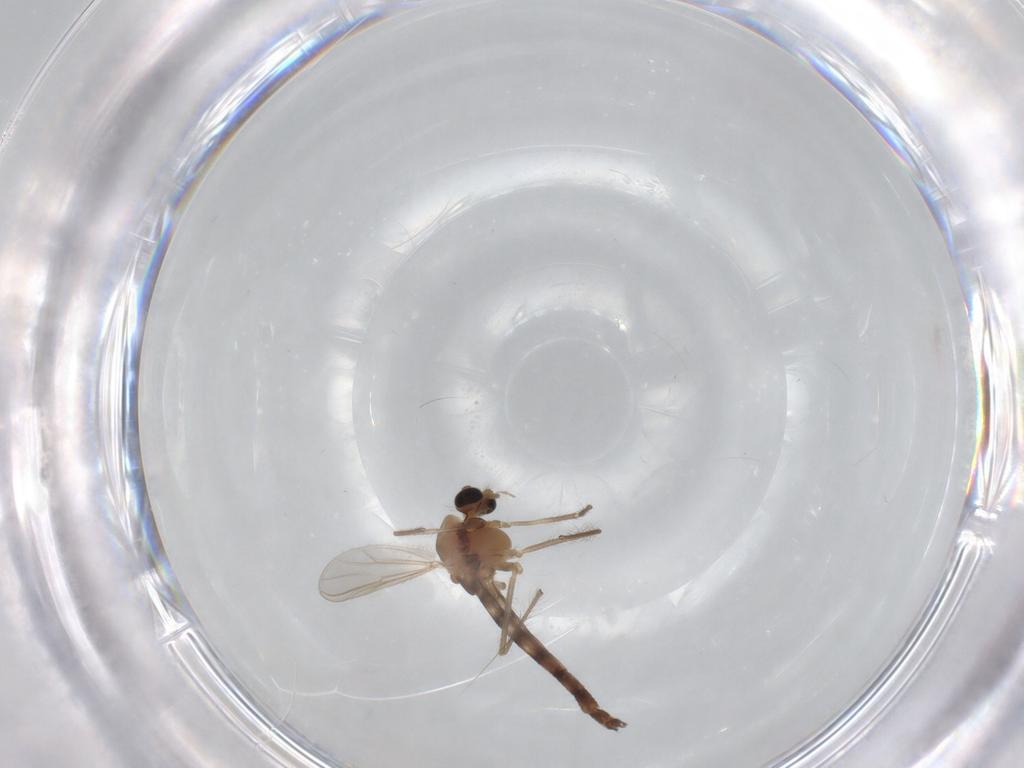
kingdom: Animalia
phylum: Arthropoda
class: Insecta
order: Diptera
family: Chironomidae
